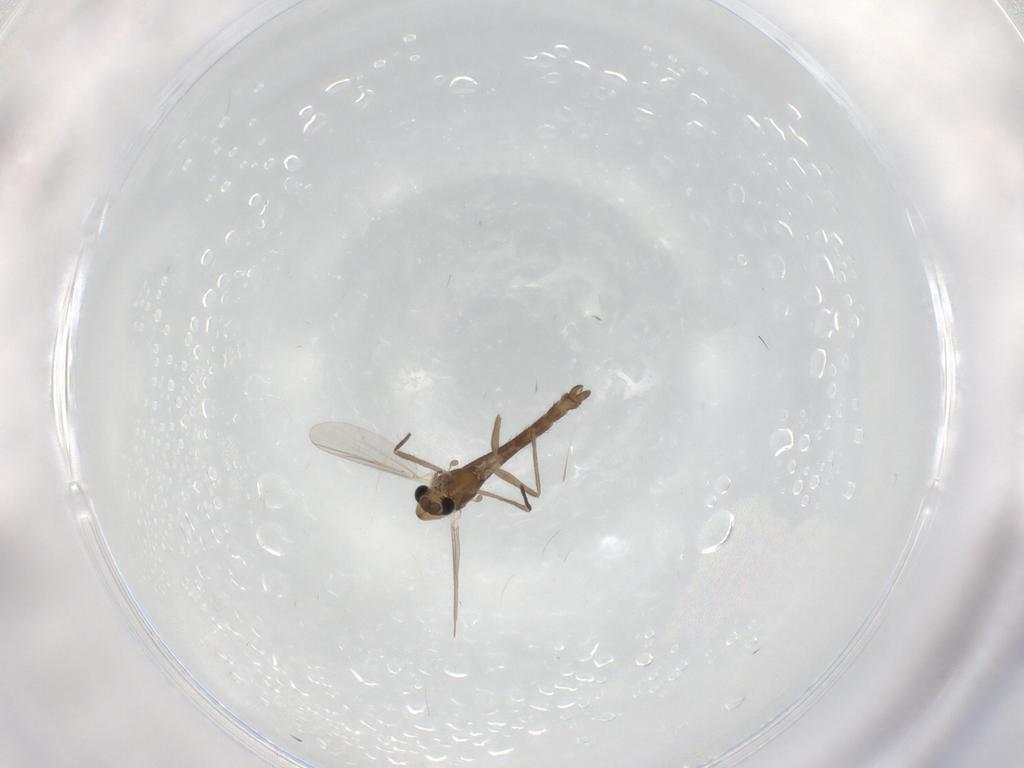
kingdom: Animalia
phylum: Arthropoda
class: Insecta
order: Diptera
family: Chironomidae
